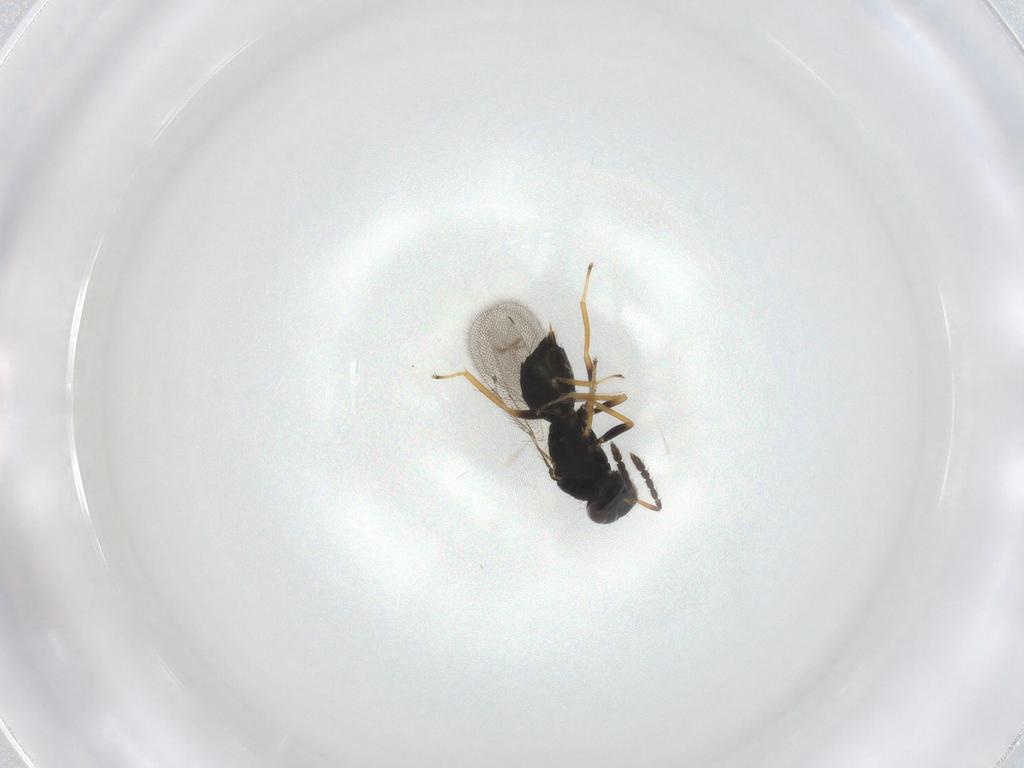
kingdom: Animalia
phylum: Arthropoda
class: Insecta
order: Hymenoptera
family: Eulophidae
